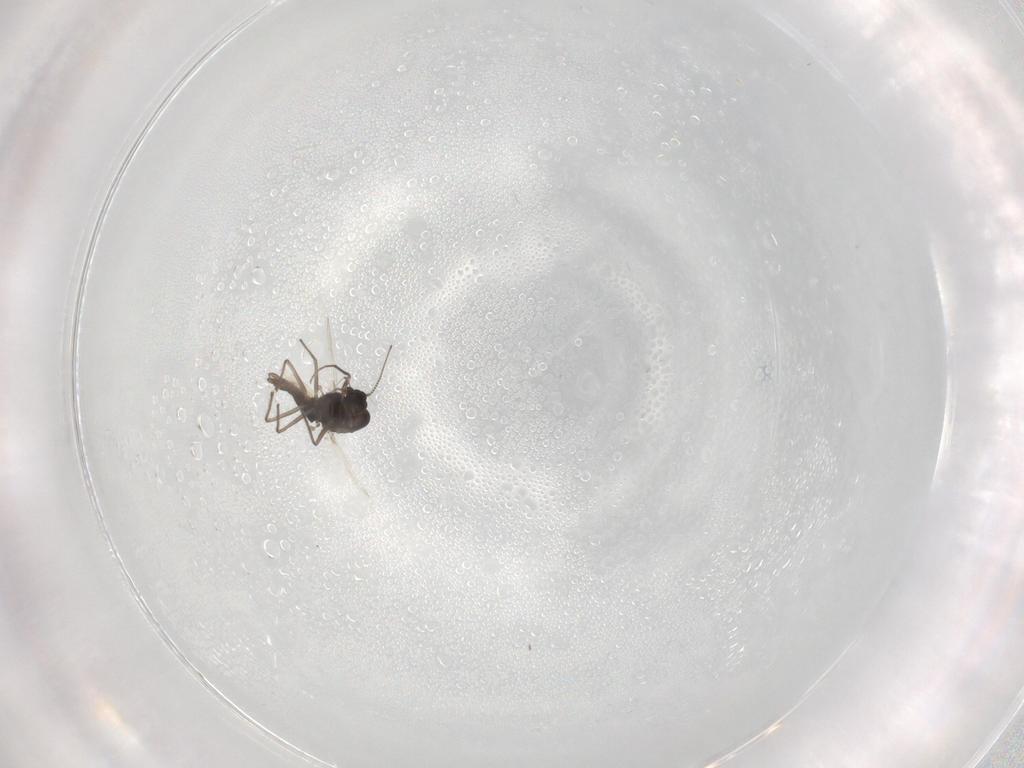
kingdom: Animalia
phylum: Arthropoda
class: Insecta
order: Diptera
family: Chironomidae
